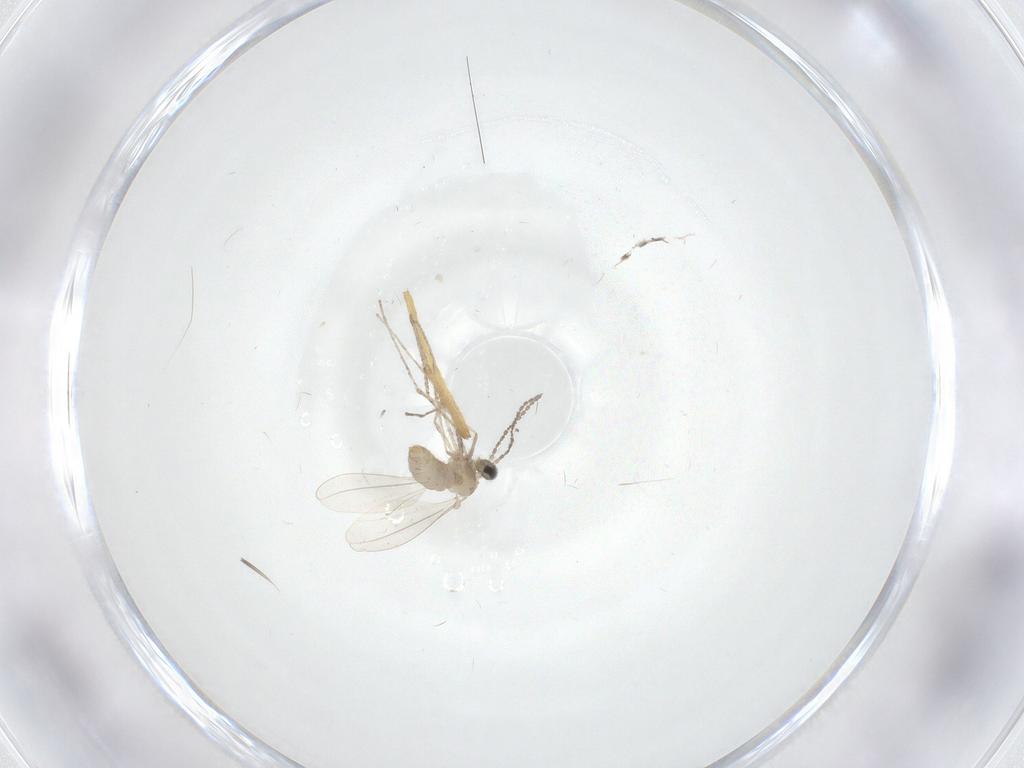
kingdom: Animalia
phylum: Arthropoda
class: Insecta
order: Diptera
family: Chironomidae
